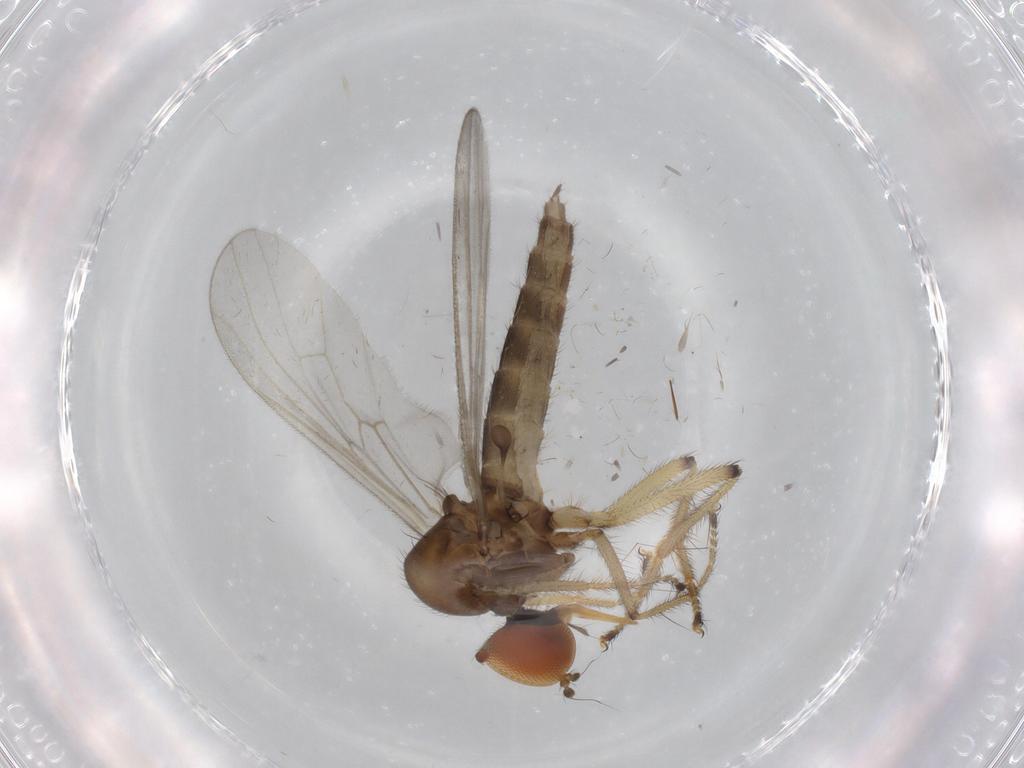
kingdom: Animalia
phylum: Arthropoda
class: Insecta
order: Diptera
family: Hybotidae
